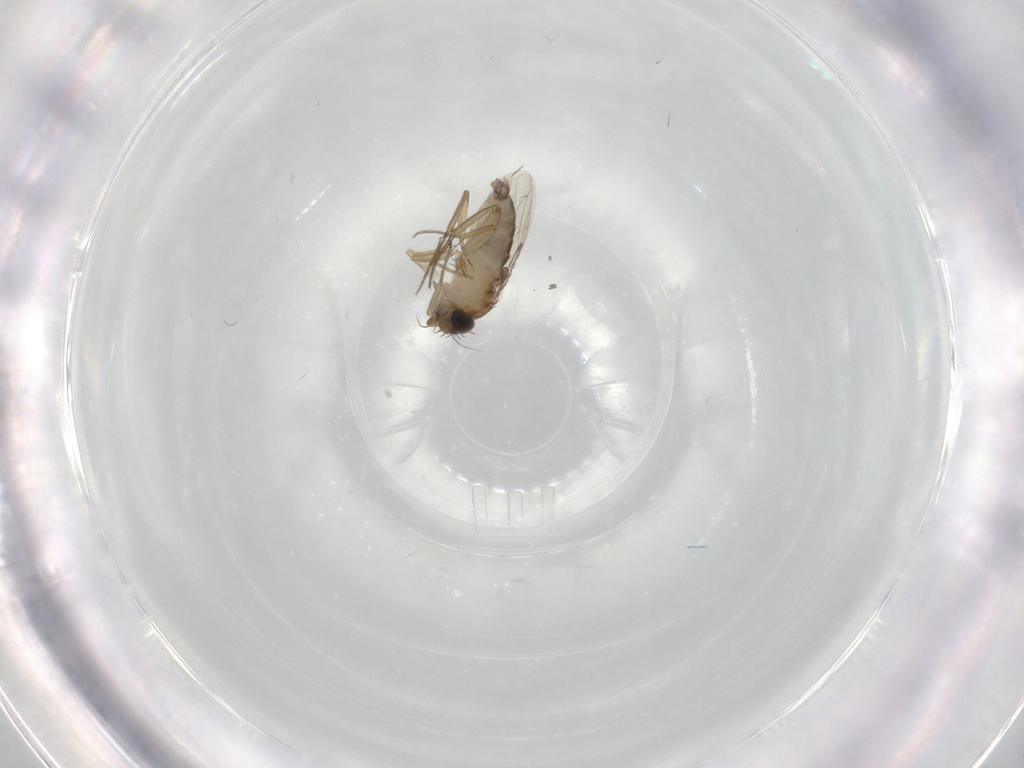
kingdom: Animalia
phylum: Arthropoda
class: Insecta
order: Diptera
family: Phoridae
